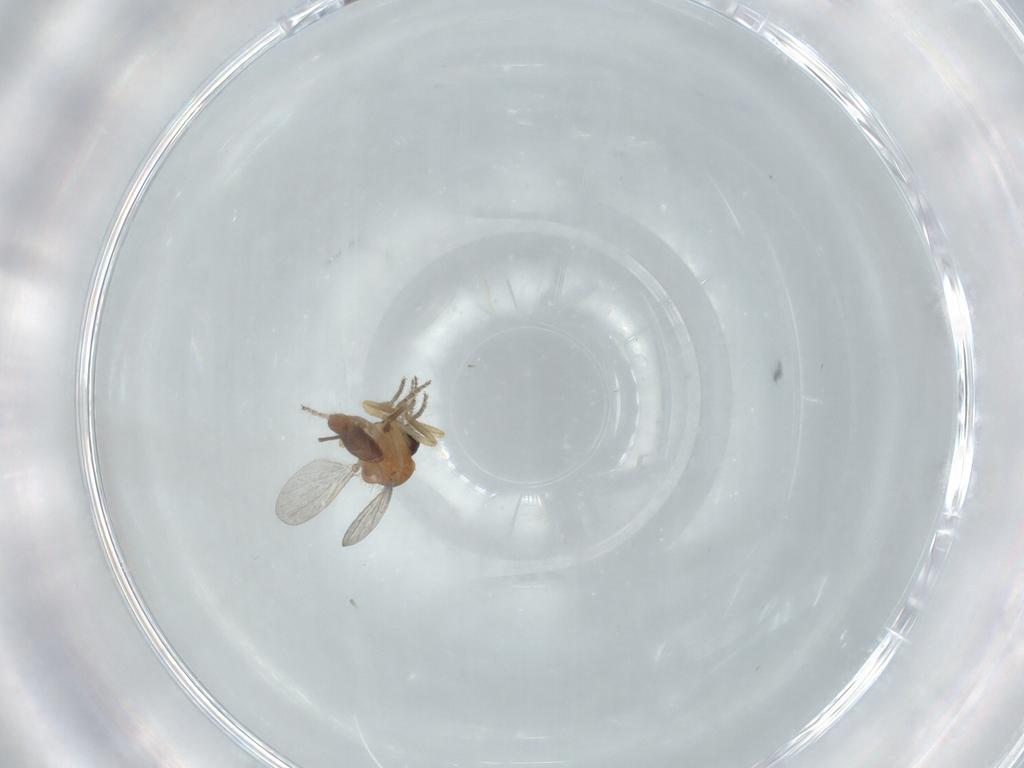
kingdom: Animalia
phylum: Arthropoda
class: Insecta
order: Diptera
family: Ceratopogonidae
